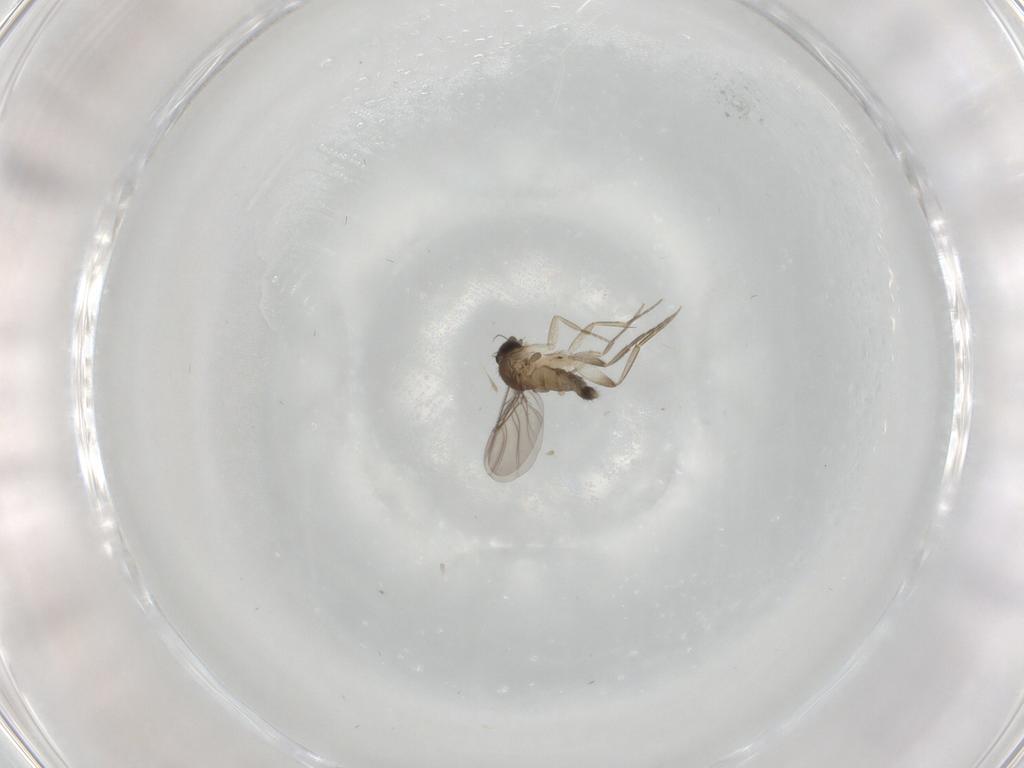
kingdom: Animalia
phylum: Arthropoda
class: Insecta
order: Diptera
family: Phoridae
